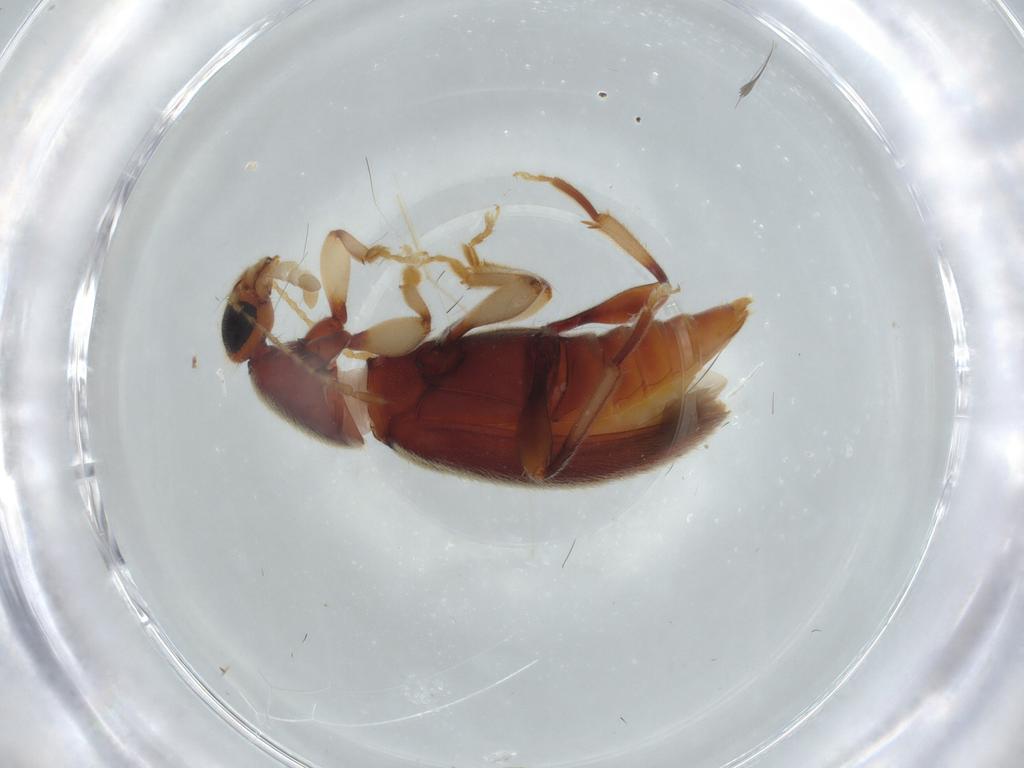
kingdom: Animalia
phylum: Arthropoda
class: Insecta
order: Coleoptera
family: Anthicidae
